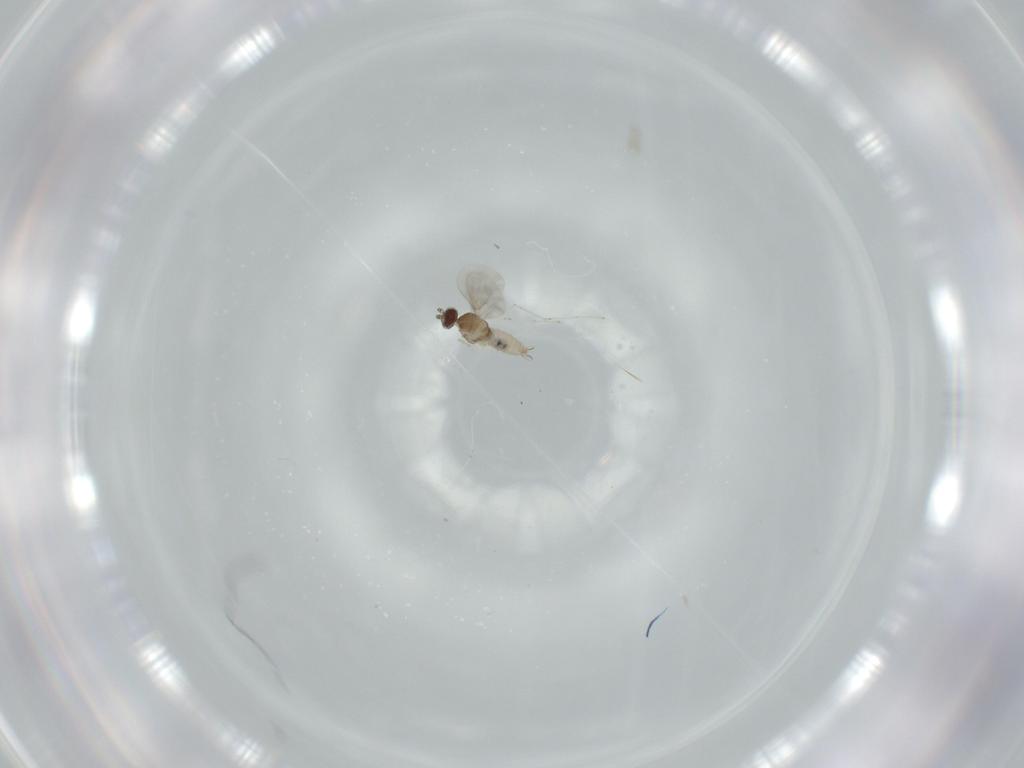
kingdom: Animalia
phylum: Arthropoda
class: Insecta
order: Diptera
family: Cecidomyiidae
